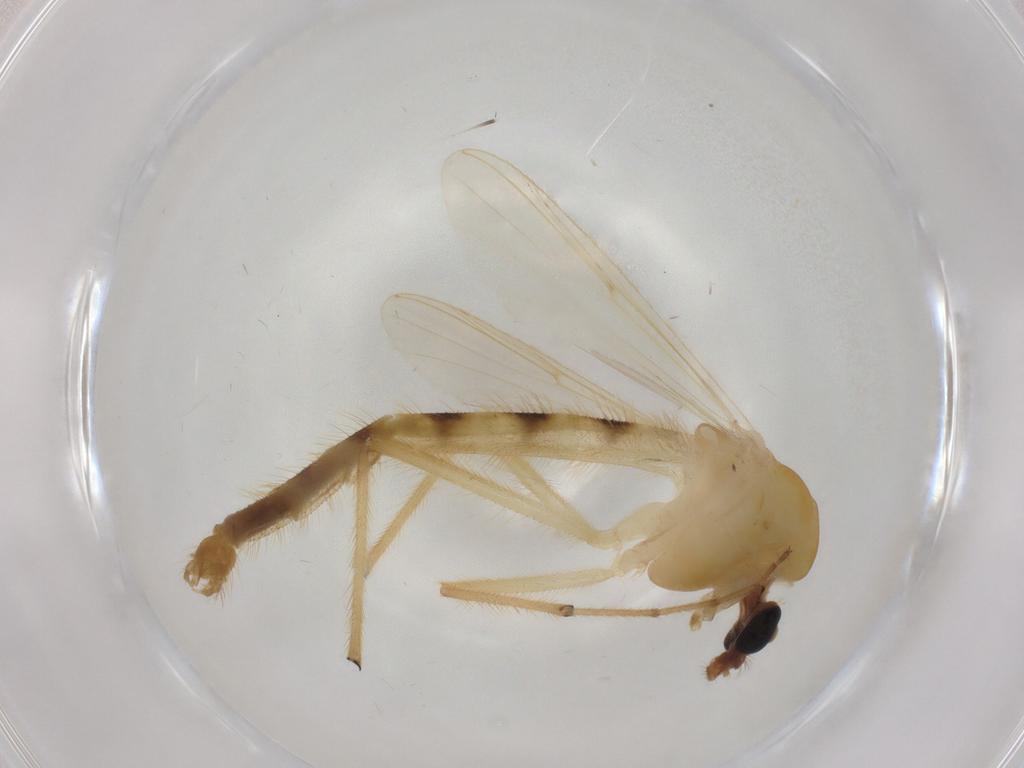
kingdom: Animalia
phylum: Arthropoda
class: Insecta
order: Diptera
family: Chironomidae
